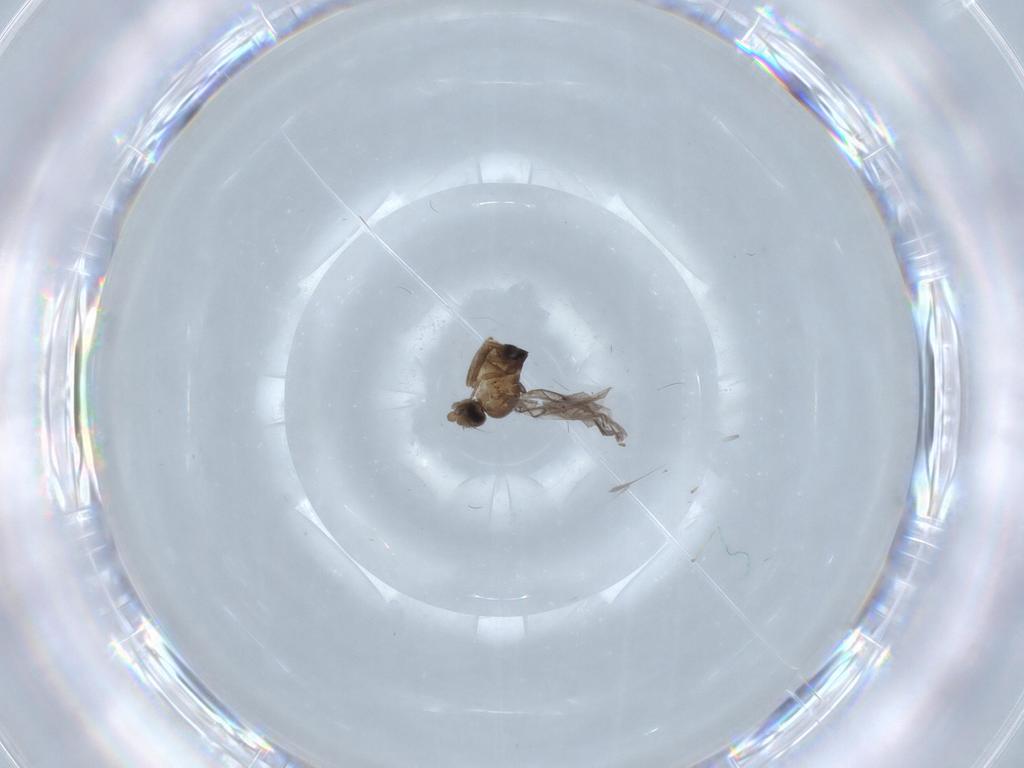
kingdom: Animalia
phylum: Arthropoda
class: Insecta
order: Diptera
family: Phoridae
